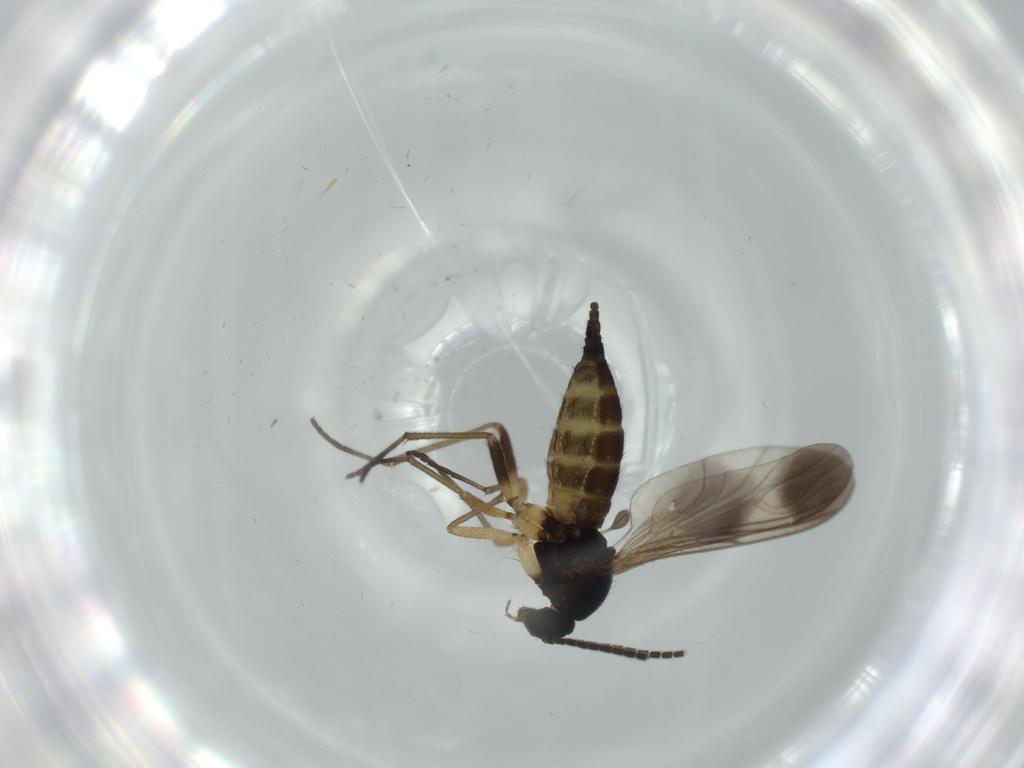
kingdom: Animalia
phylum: Arthropoda
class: Insecta
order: Diptera
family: Sciaridae
